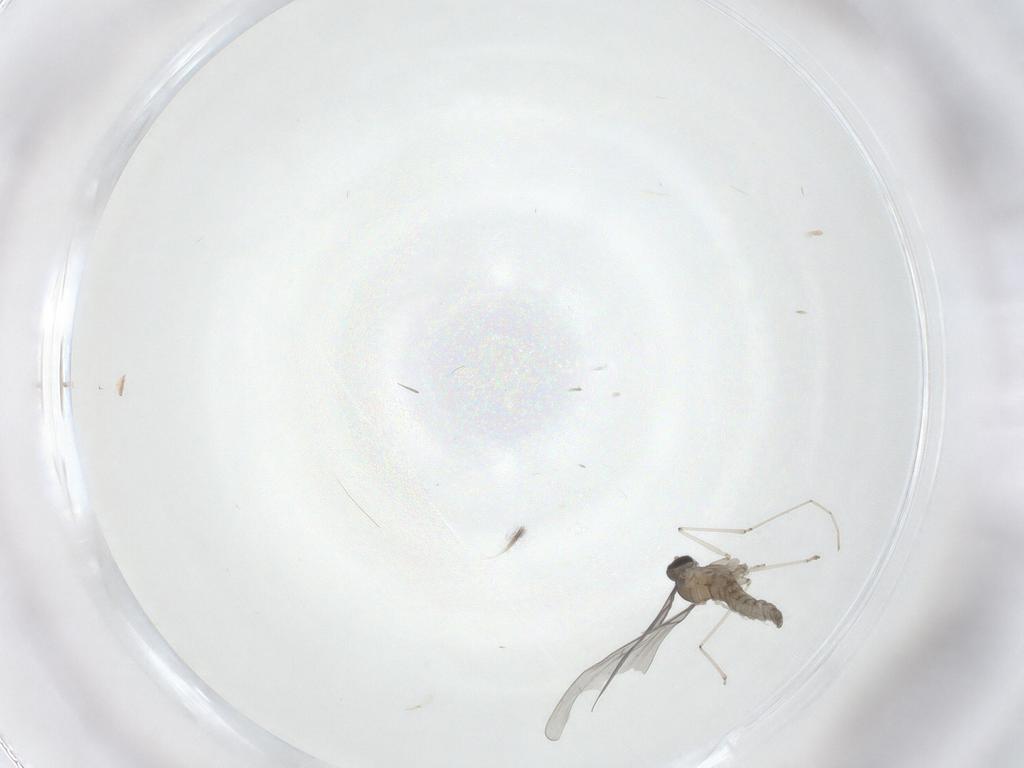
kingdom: Animalia
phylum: Arthropoda
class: Insecta
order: Diptera
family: Cecidomyiidae
